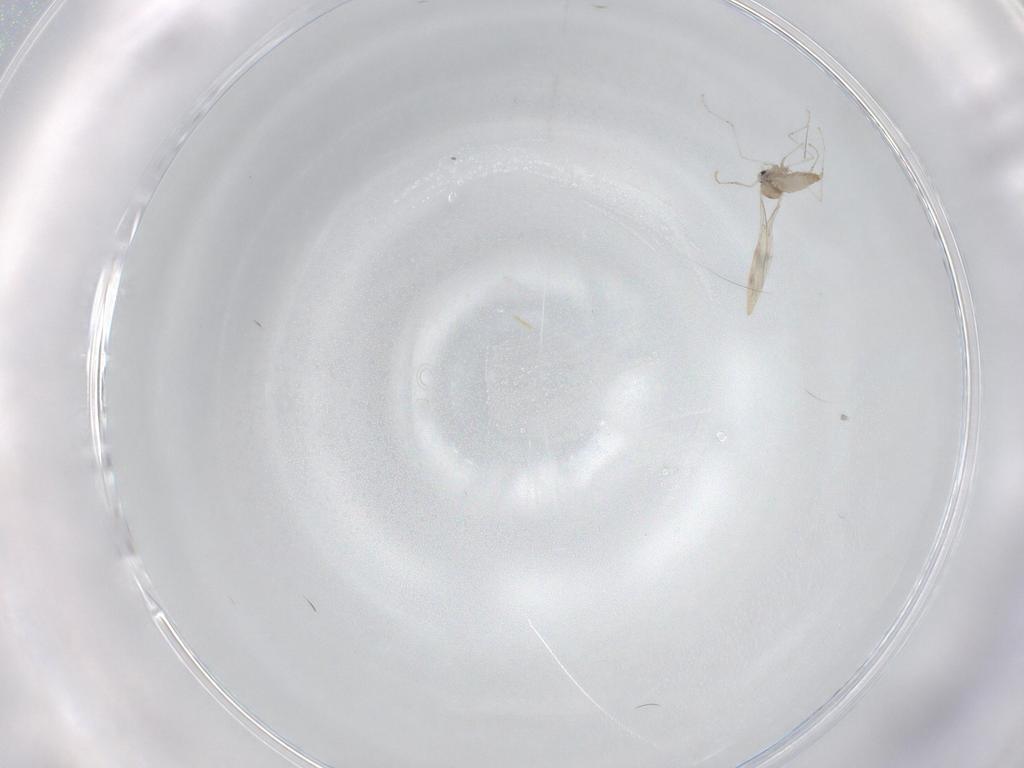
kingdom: Animalia
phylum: Arthropoda
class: Insecta
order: Diptera
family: Cecidomyiidae
